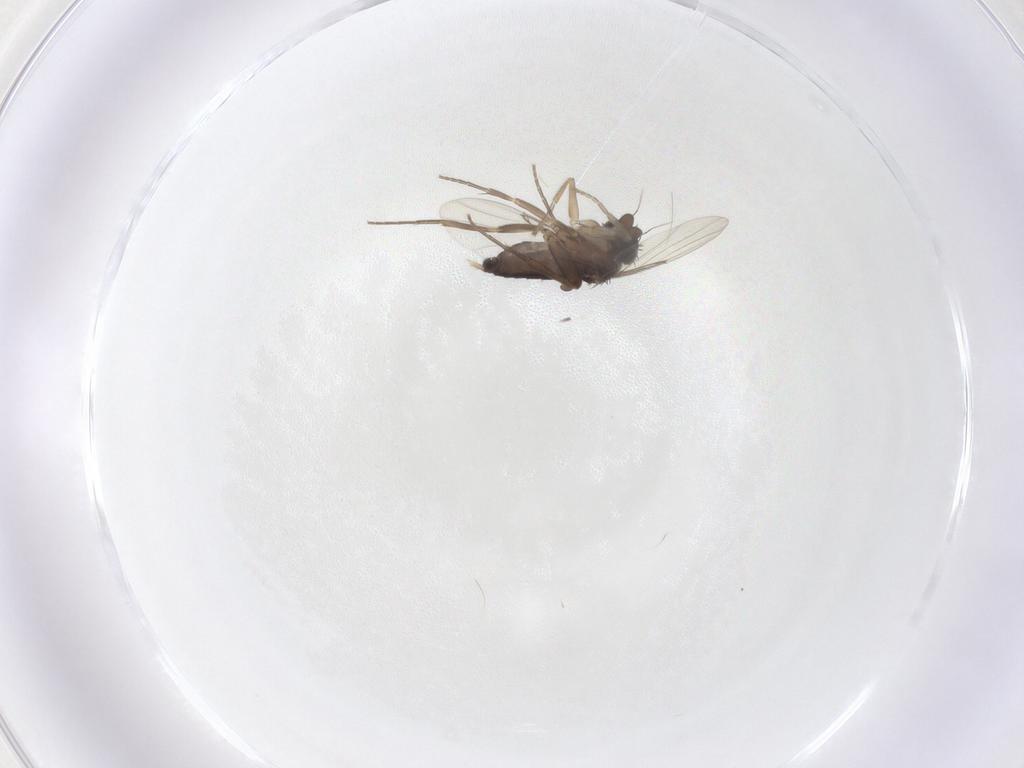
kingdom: Animalia
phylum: Arthropoda
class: Insecta
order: Diptera
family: Phoridae
